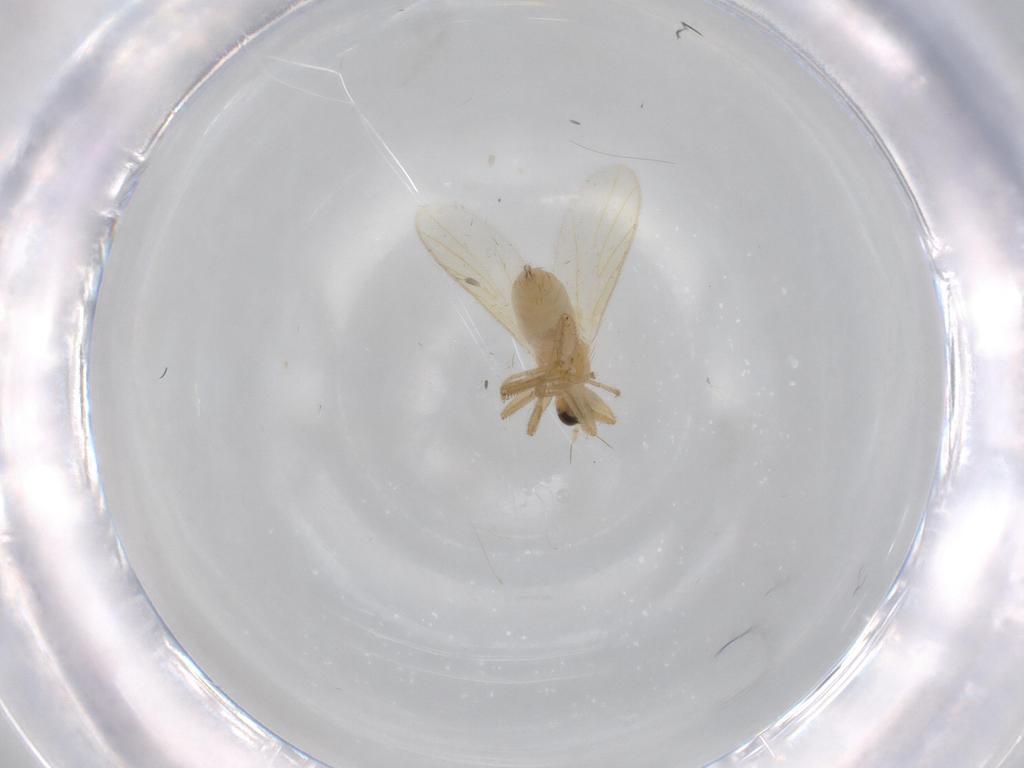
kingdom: Animalia
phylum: Arthropoda
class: Insecta
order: Diptera
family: Hybotidae
